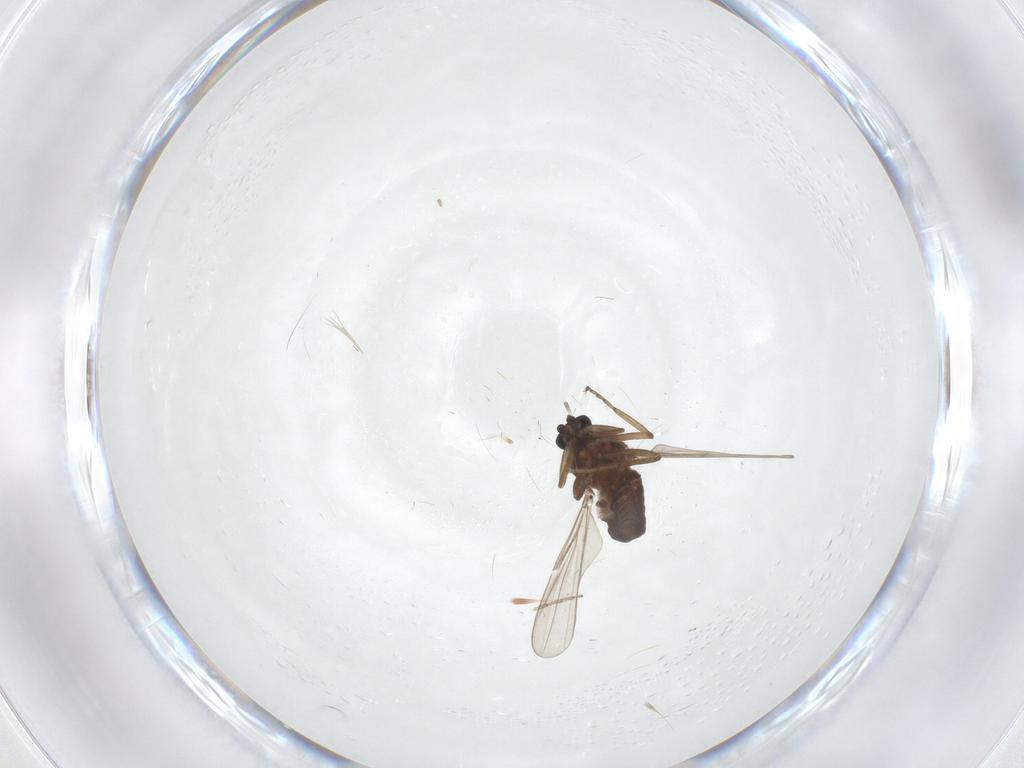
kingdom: Animalia
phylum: Arthropoda
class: Insecta
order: Diptera
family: Ceratopogonidae
